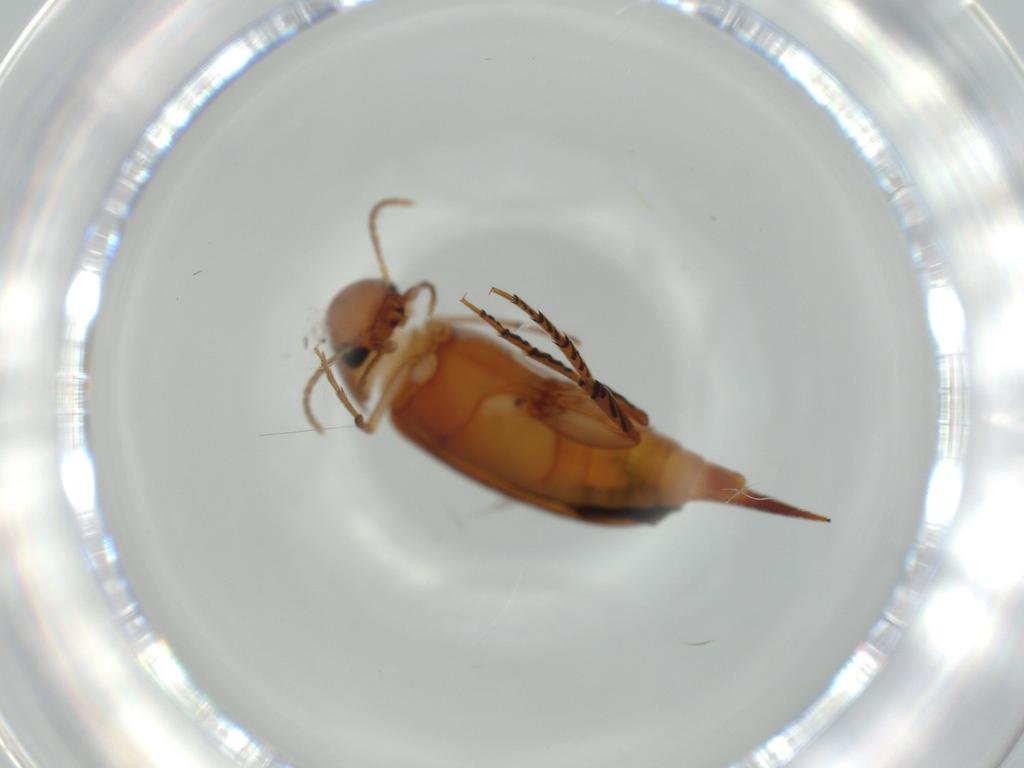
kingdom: Animalia
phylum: Arthropoda
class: Insecta
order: Coleoptera
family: Mordellidae
